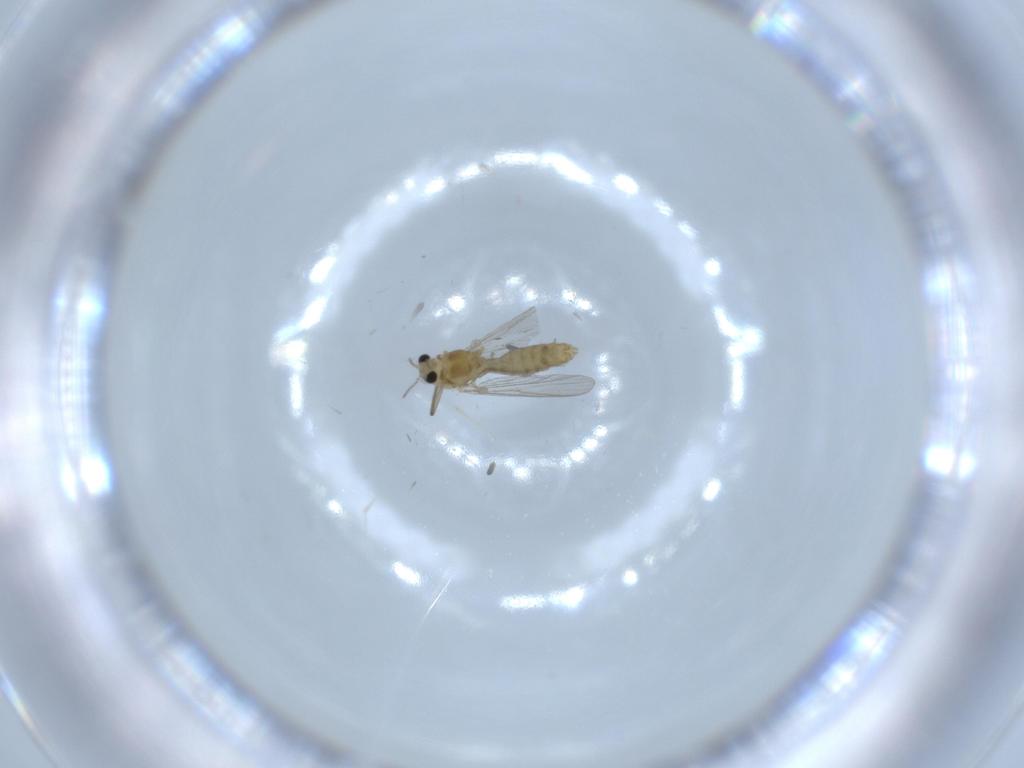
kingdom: Animalia
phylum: Arthropoda
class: Insecta
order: Diptera
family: Chironomidae
